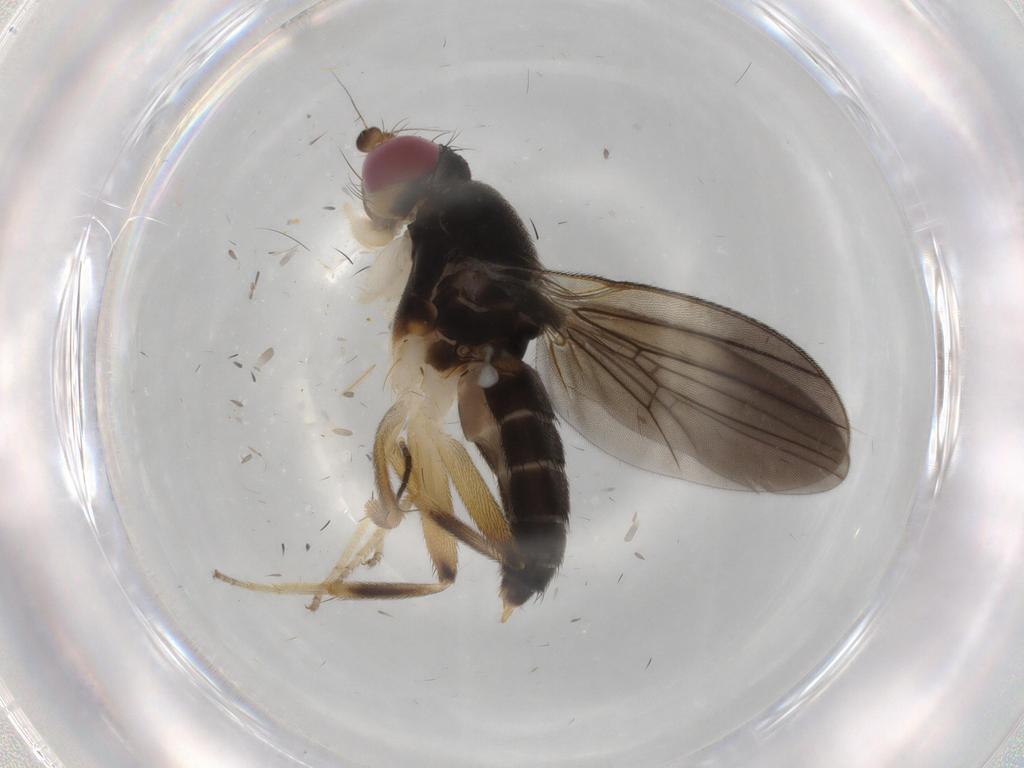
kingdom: Animalia
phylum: Arthropoda
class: Insecta
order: Diptera
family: Clusiidae
